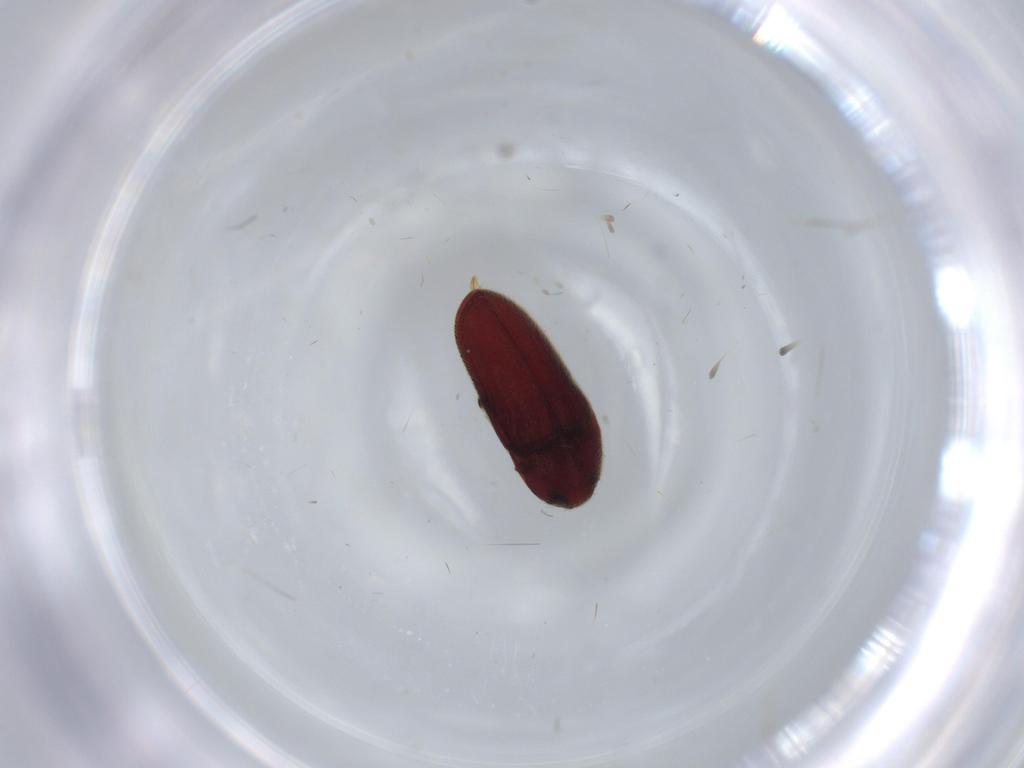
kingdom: Animalia
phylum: Arthropoda
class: Insecta
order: Coleoptera
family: Throscidae
